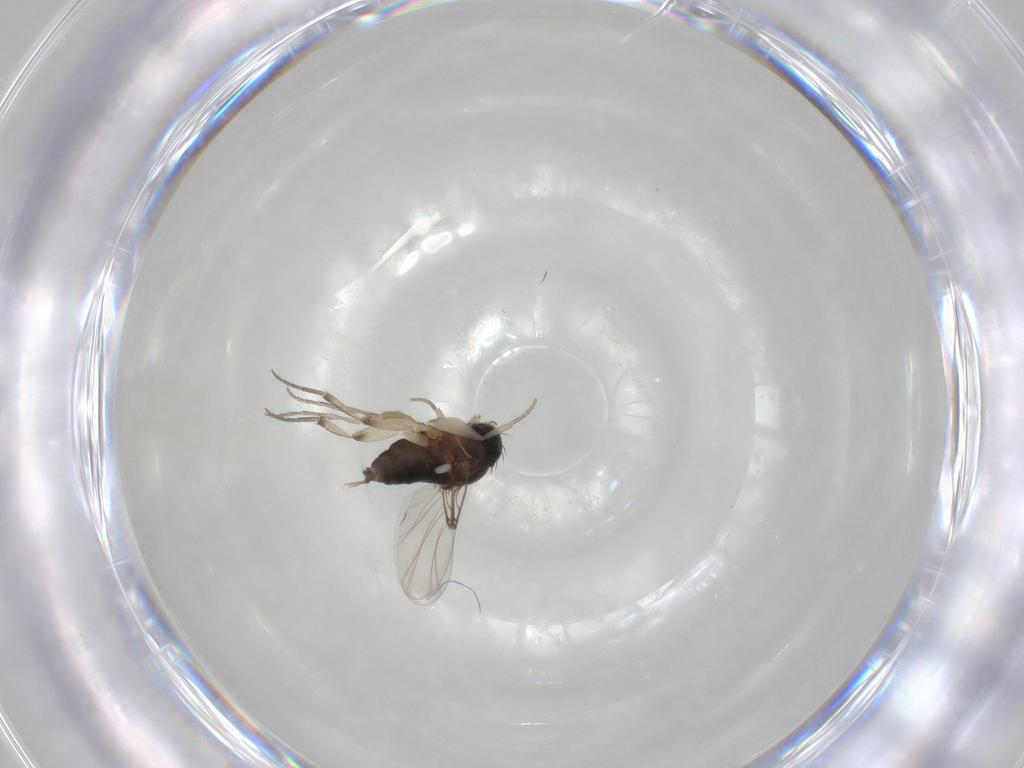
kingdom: Animalia
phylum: Arthropoda
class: Insecta
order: Diptera
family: Phoridae
